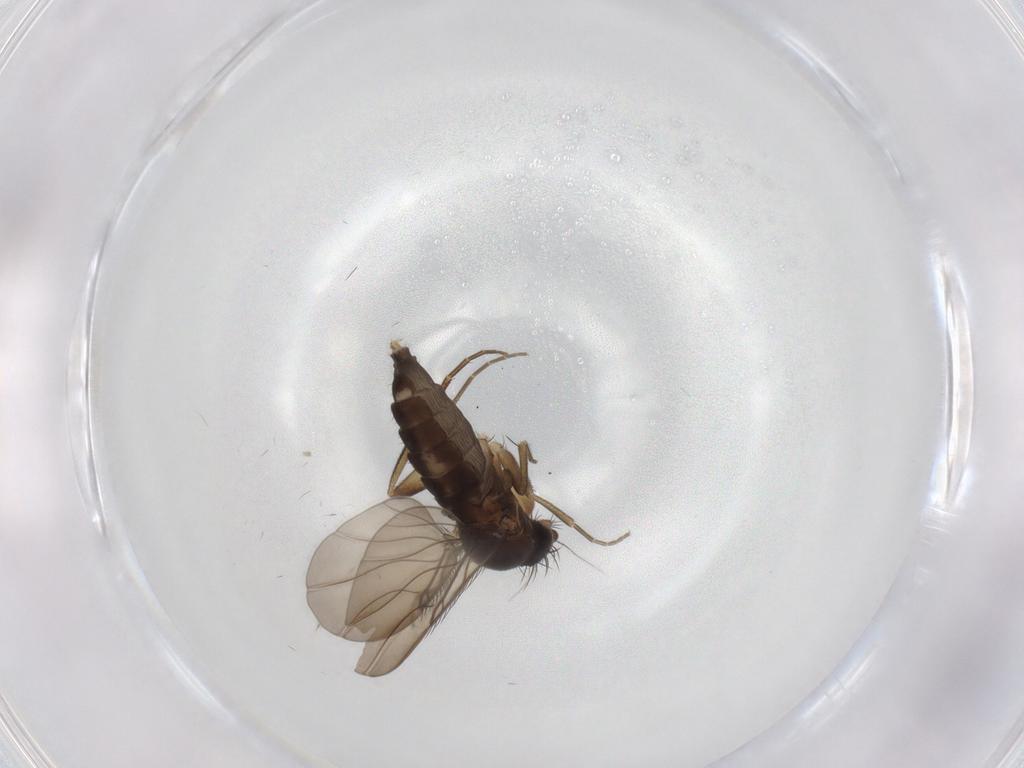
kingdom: Animalia
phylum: Arthropoda
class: Insecta
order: Diptera
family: Phoridae
